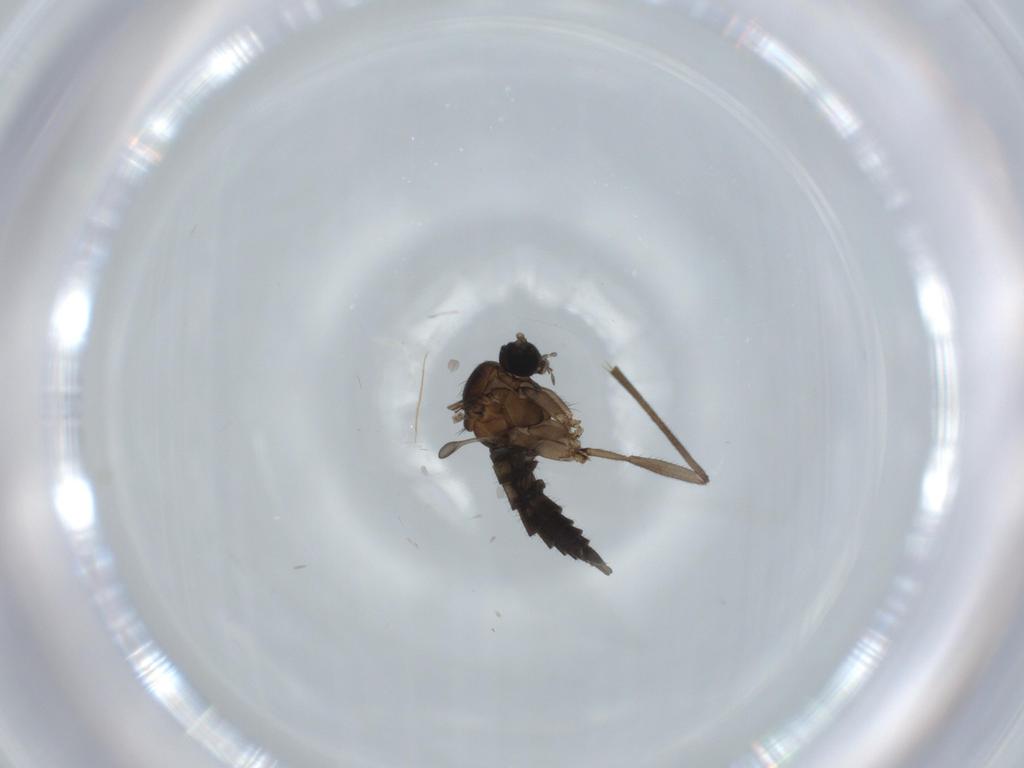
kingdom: Animalia
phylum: Arthropoda
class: Insecta
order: Diptera
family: Sciaridae
